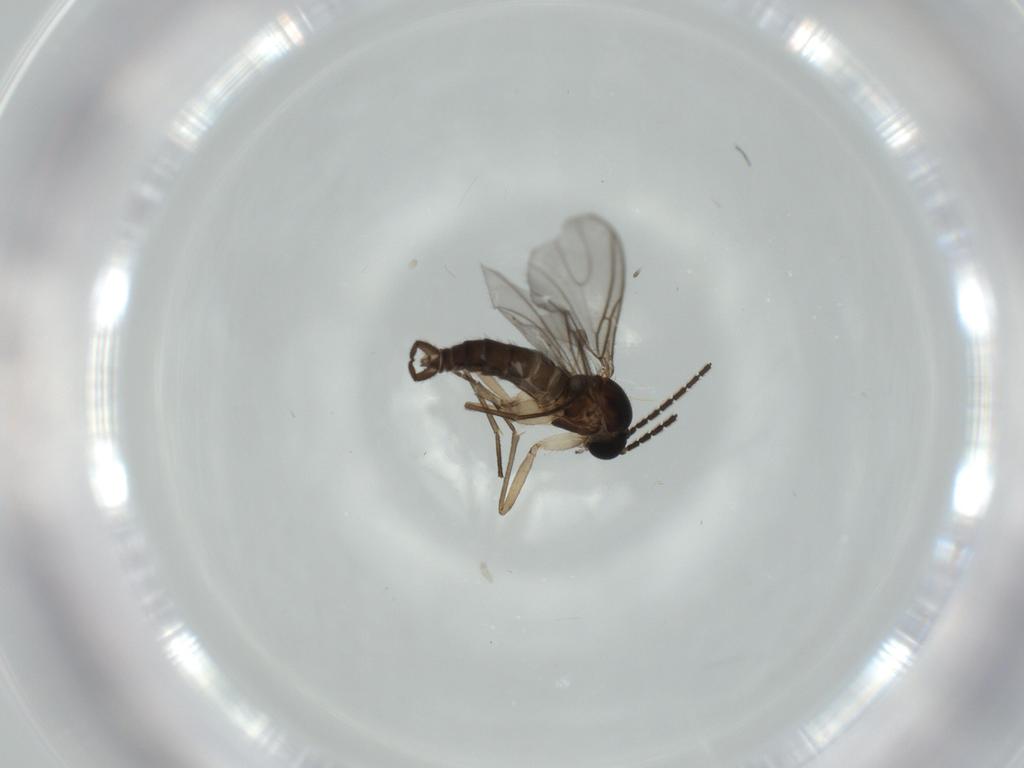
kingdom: Animalia
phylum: Arthropoda
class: Insecta
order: Diptera
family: Sciaridae
